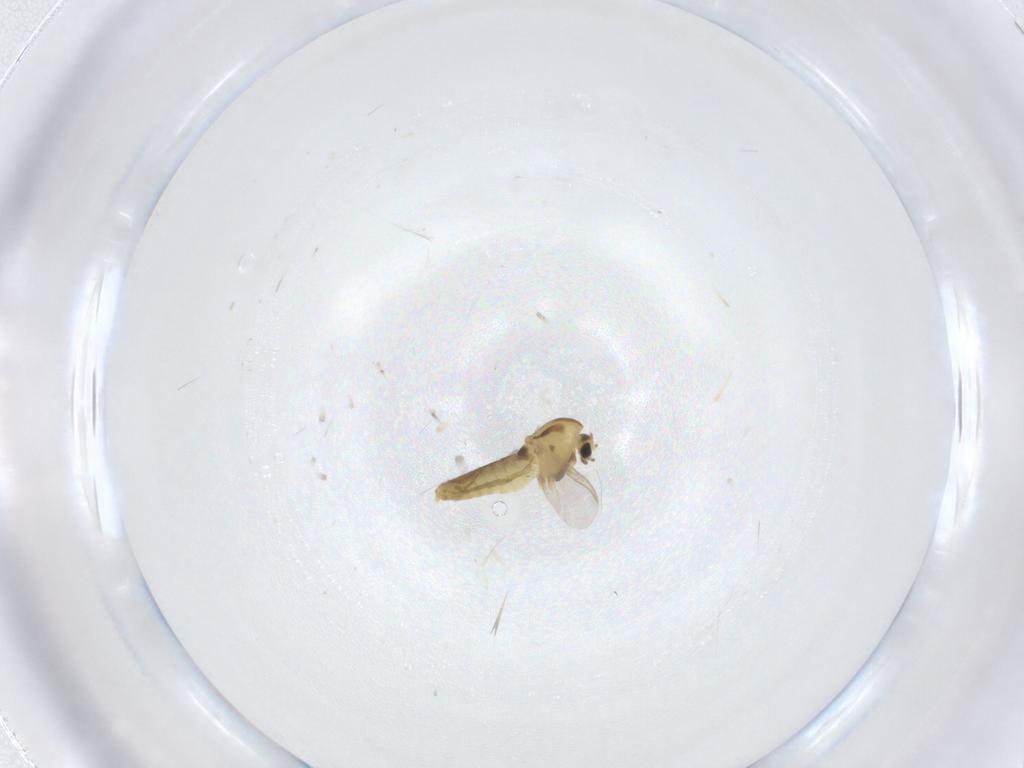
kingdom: Animalia
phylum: Arthropoda
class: Insecta
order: Diptera
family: Chironomidae
